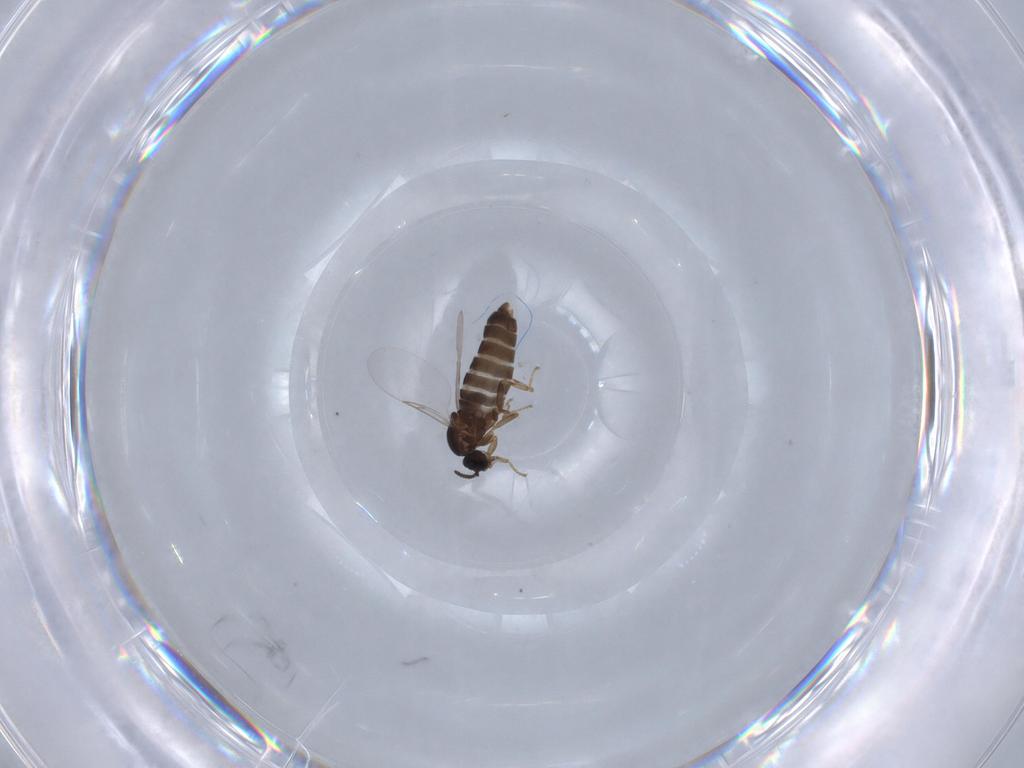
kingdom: Animalia
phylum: Arthropoda
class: Insecta
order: Diptera
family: Scatopsidae
